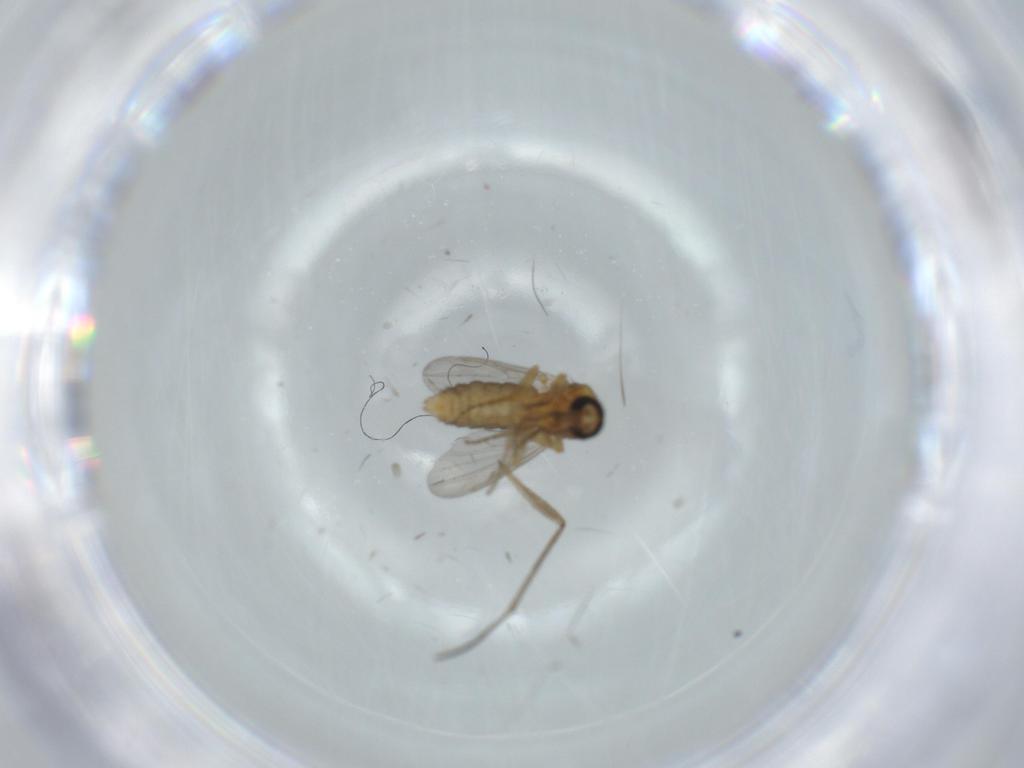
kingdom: Animalia
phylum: Arthropoda
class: Insecta
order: Diptera
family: Ceratopogonidae
